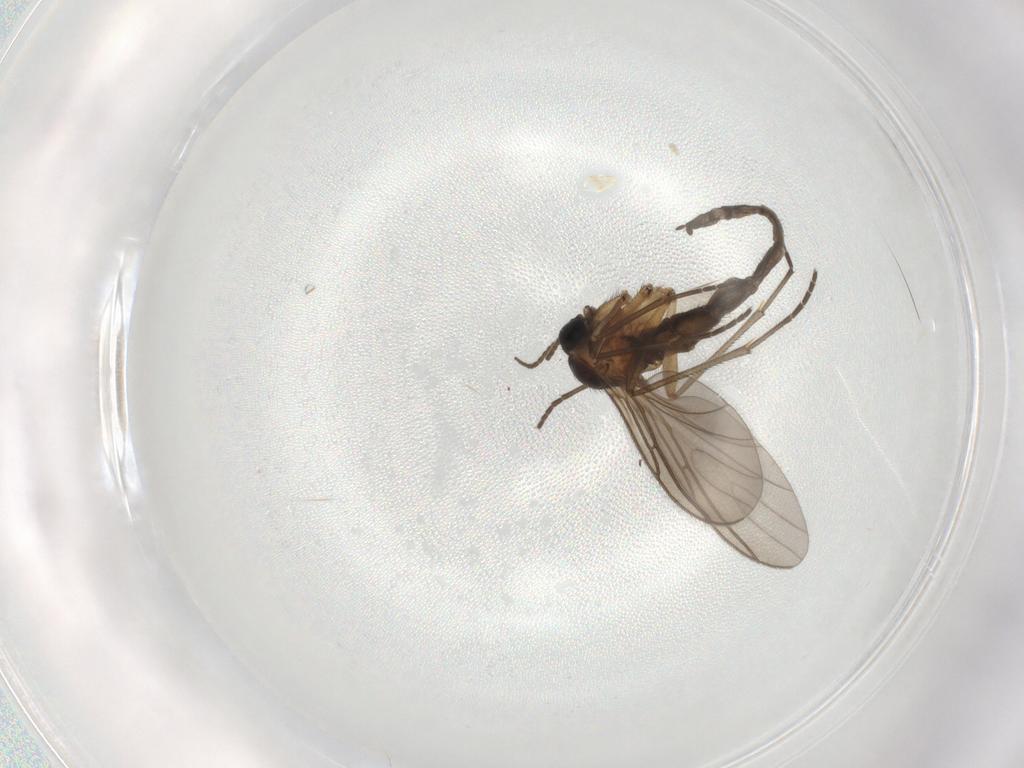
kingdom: Animalia
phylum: Arthropoda
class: Insecta
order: Diptera
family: Sciaridae
